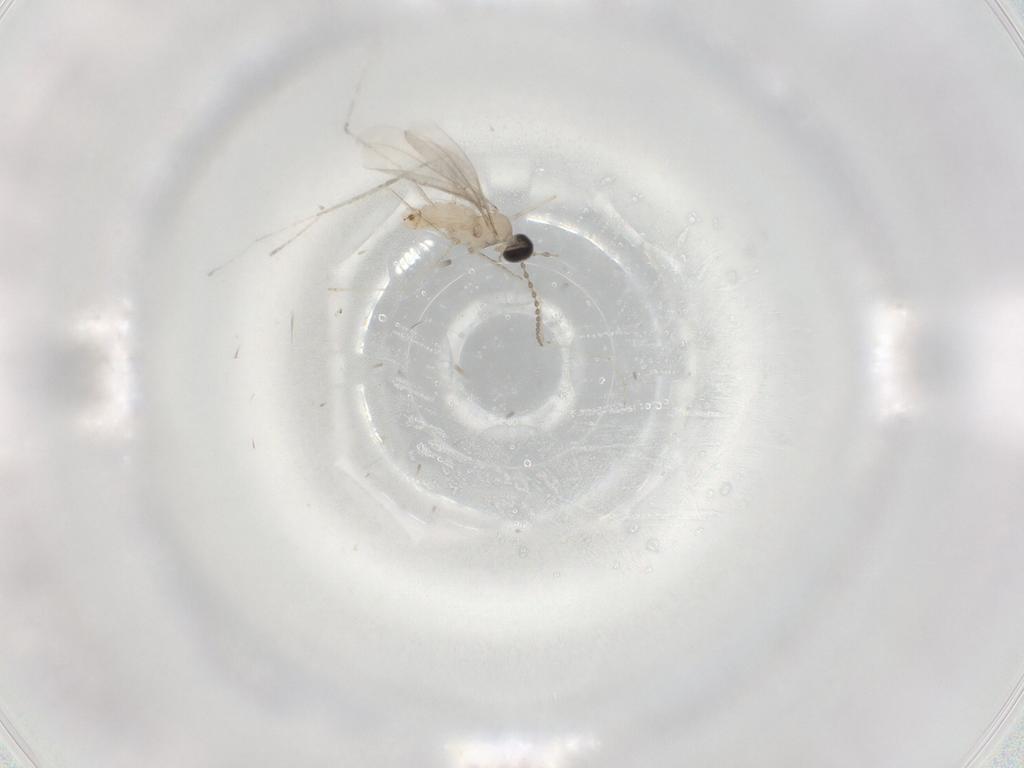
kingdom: Animalia
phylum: Arthropoda
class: Insecta
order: Diptera
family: Cecidomyiidae
